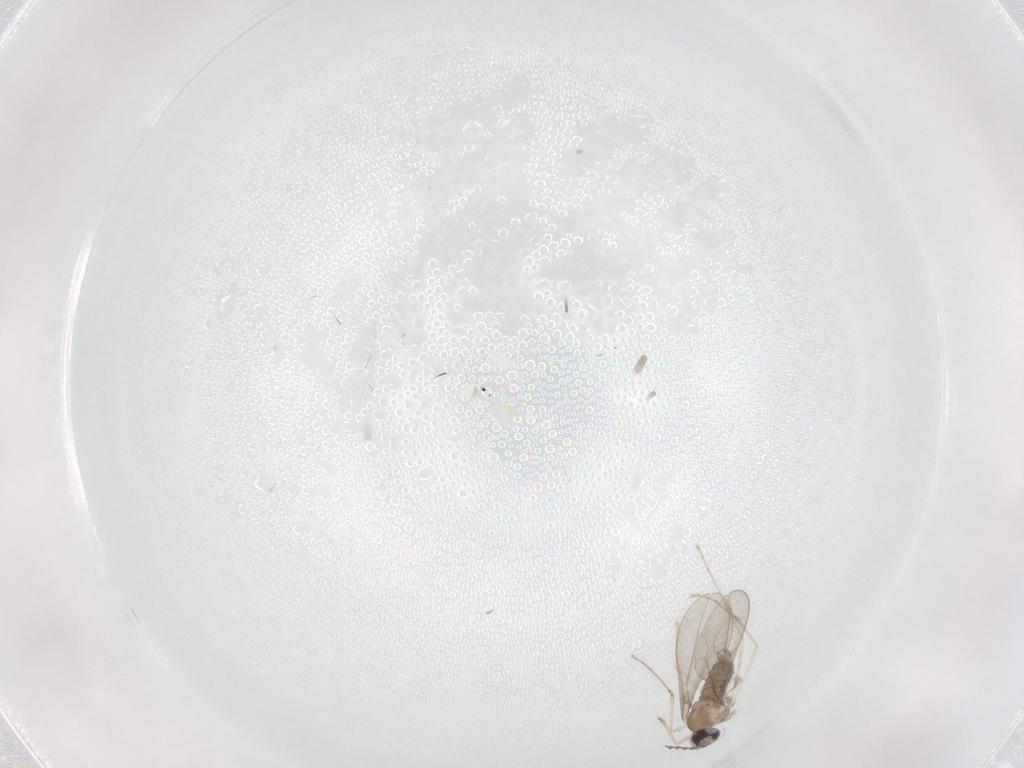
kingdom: Animalia
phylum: Arthropoda
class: Insecta
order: Diptera
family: Cecidomyiidae
